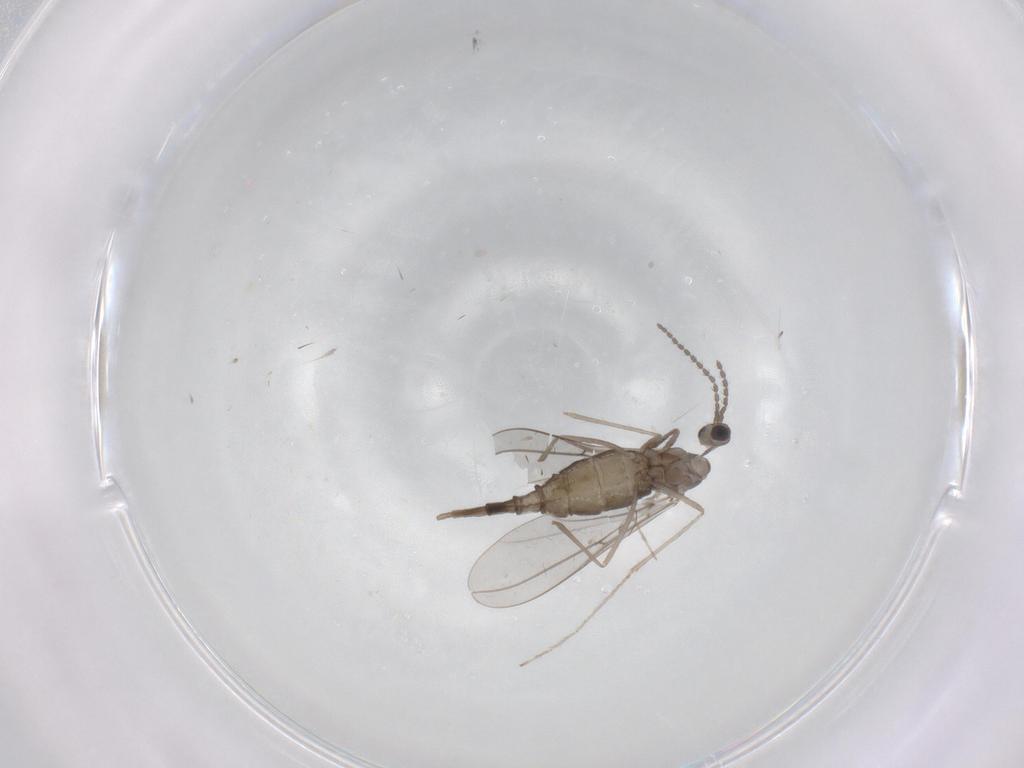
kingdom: Animalia
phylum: Arthropoda
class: Insecta
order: Diptera
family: Cecidomyiidae
